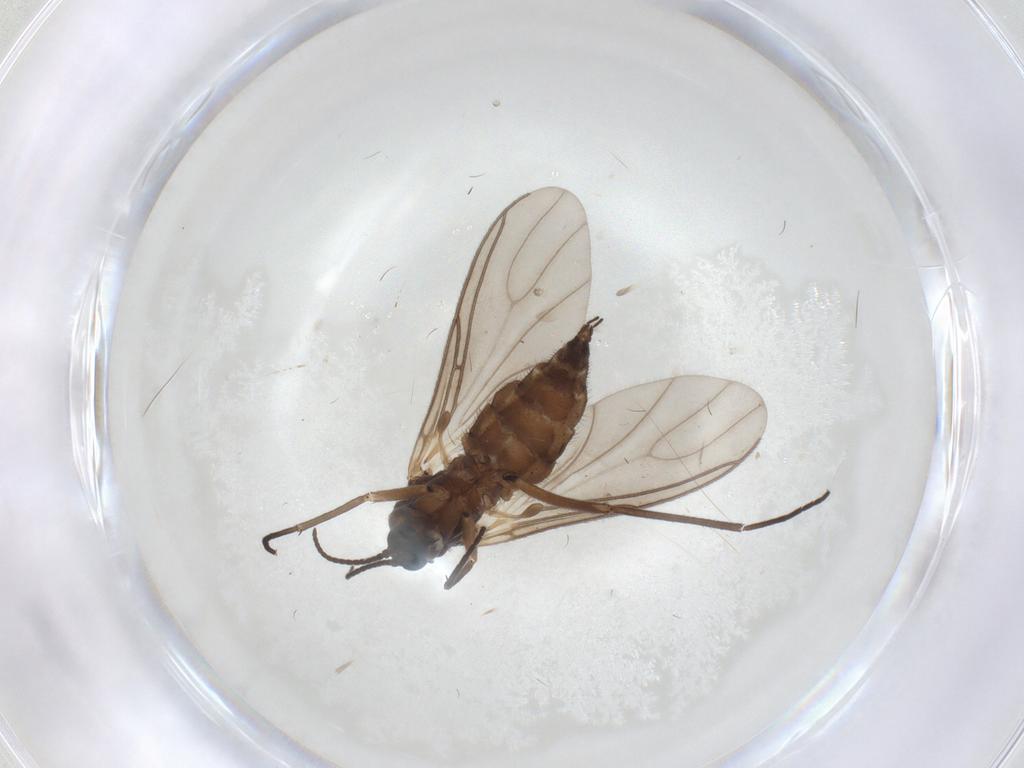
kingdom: Animalia
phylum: Arthropoda
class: Insecta
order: Diptera
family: Sciaridae
